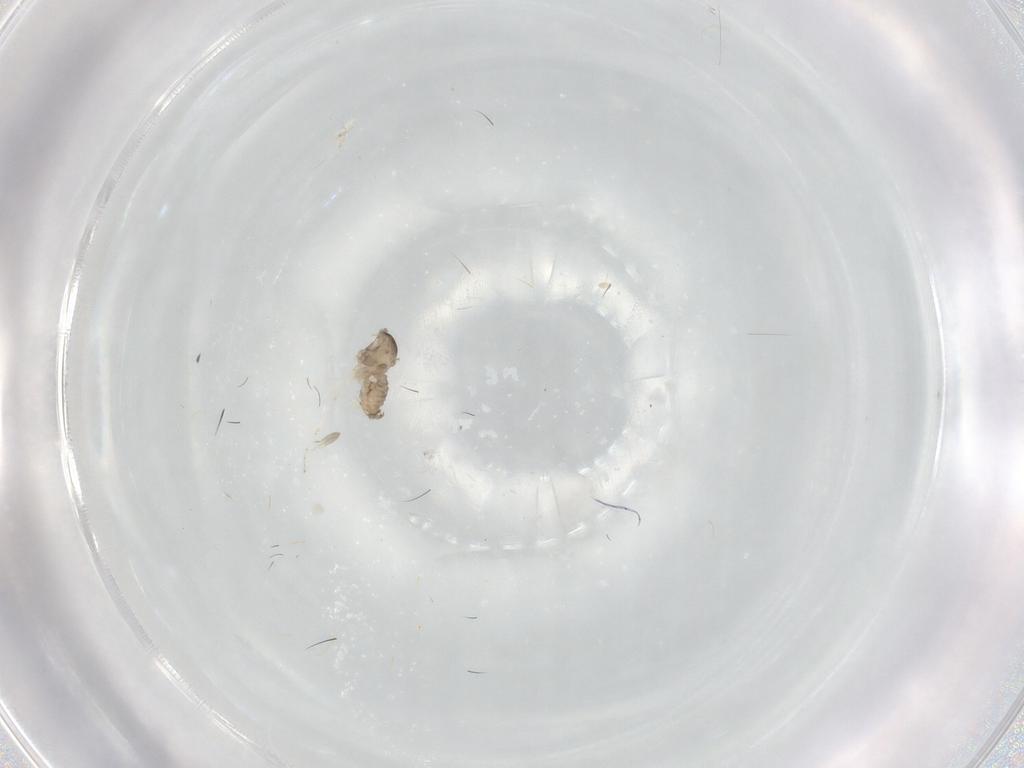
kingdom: Animalia
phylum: Arthropoda
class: Insecta
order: Diptera
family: Cecidomyiidae
